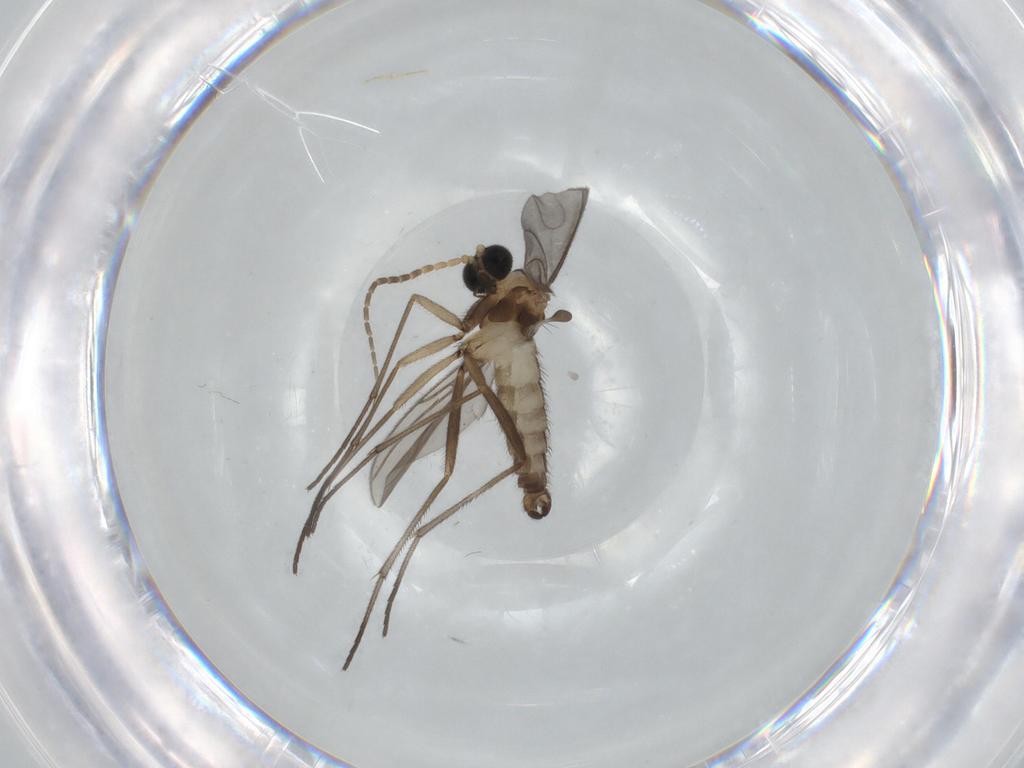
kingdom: Animalia
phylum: Arthropoda
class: Insecta
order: Diptera
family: Sciaridae
